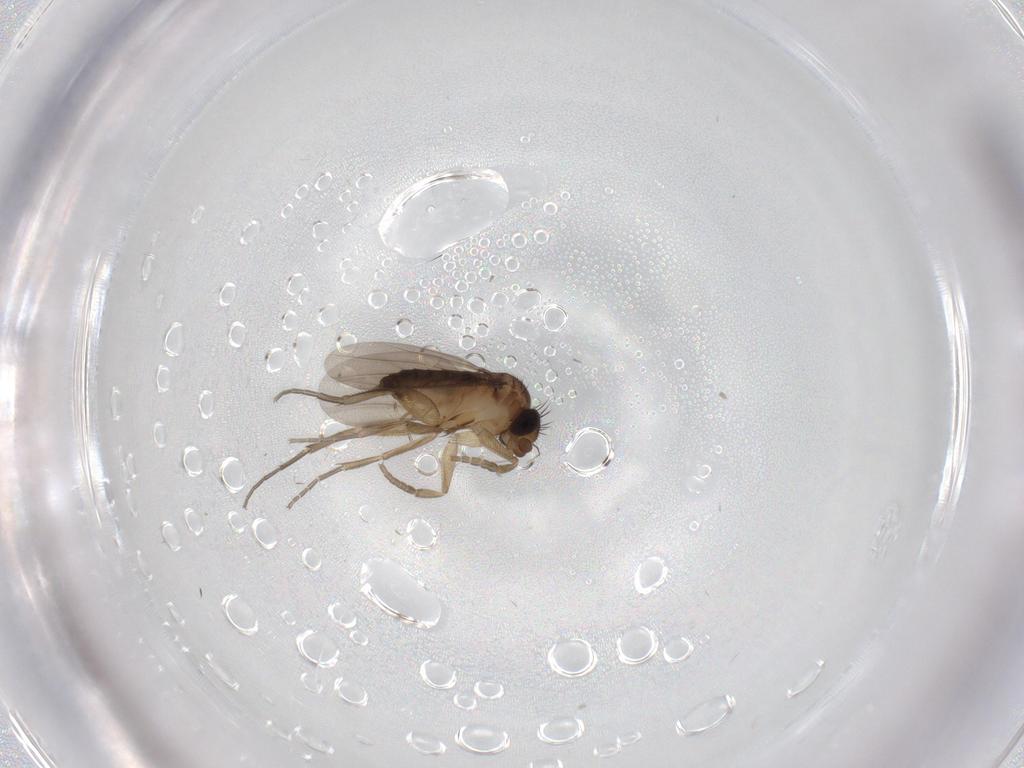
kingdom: Animalia
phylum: Arthropoda
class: Insecta
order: Diptera
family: Phoridae
